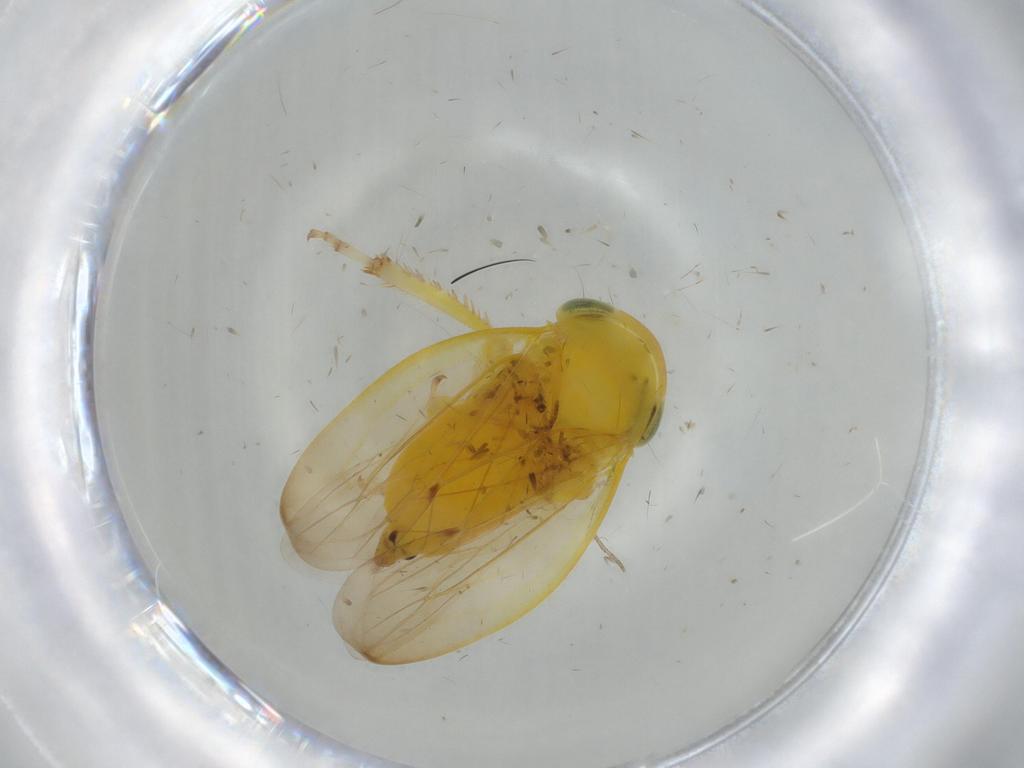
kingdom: Animalia
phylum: Arthropoda
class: Insecta
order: Hemiptera
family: Cicadellidae
